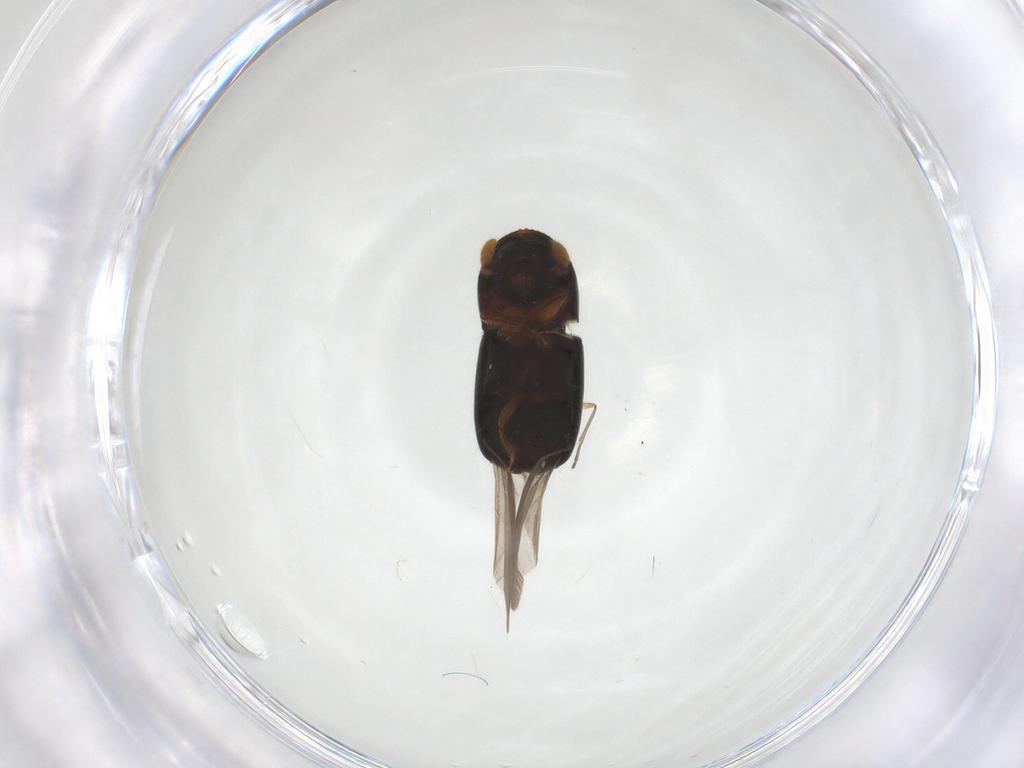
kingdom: Animalia
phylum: Arthropoda
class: Insecta
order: Coleoptera
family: Curculionidae
